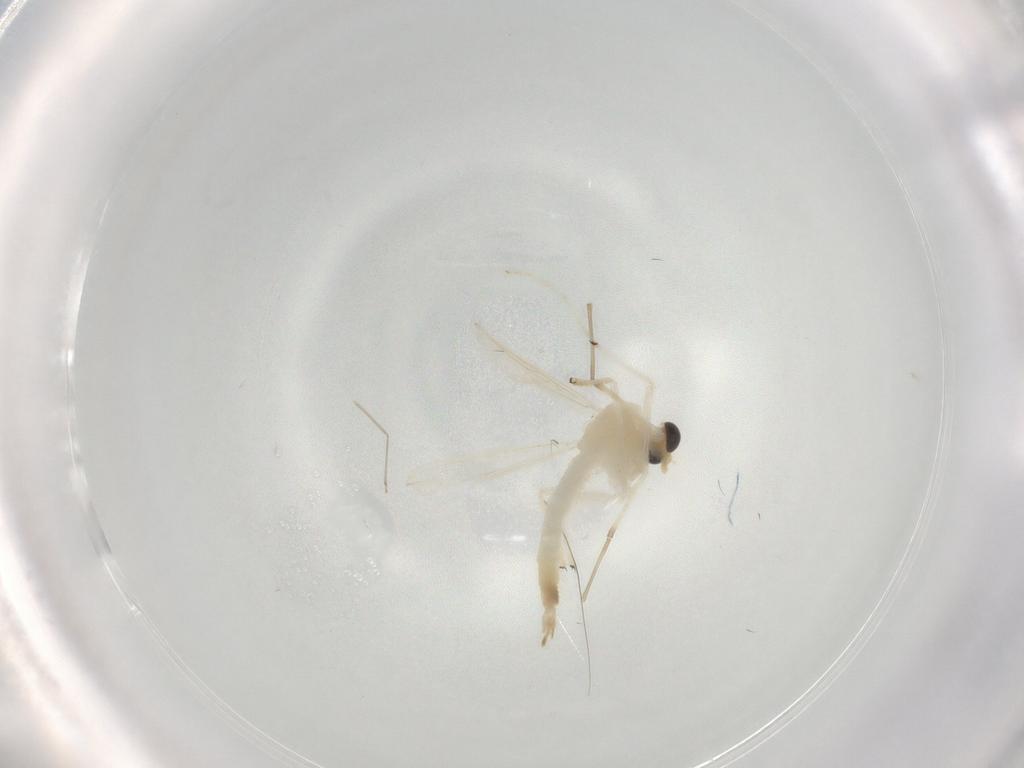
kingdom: Animalia
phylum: Arthropoda
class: Insecta
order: Diptera
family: Chironomidae
